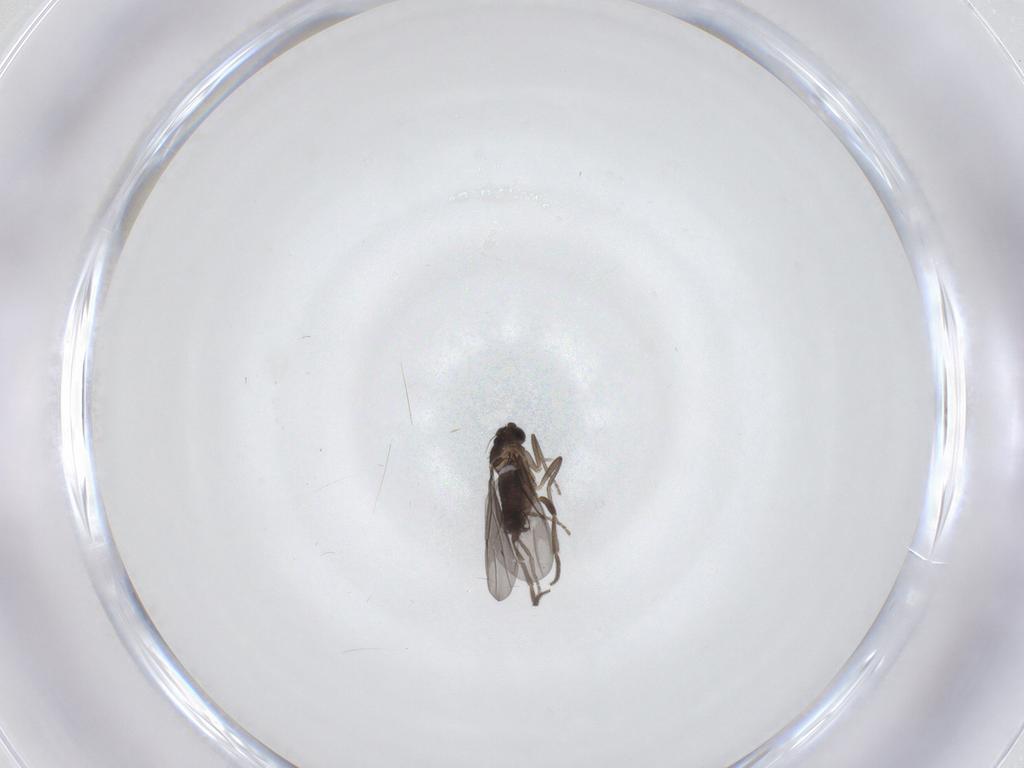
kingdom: Animalia
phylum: Arthropoda
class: Insecta
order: Diptera
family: Phoridae
